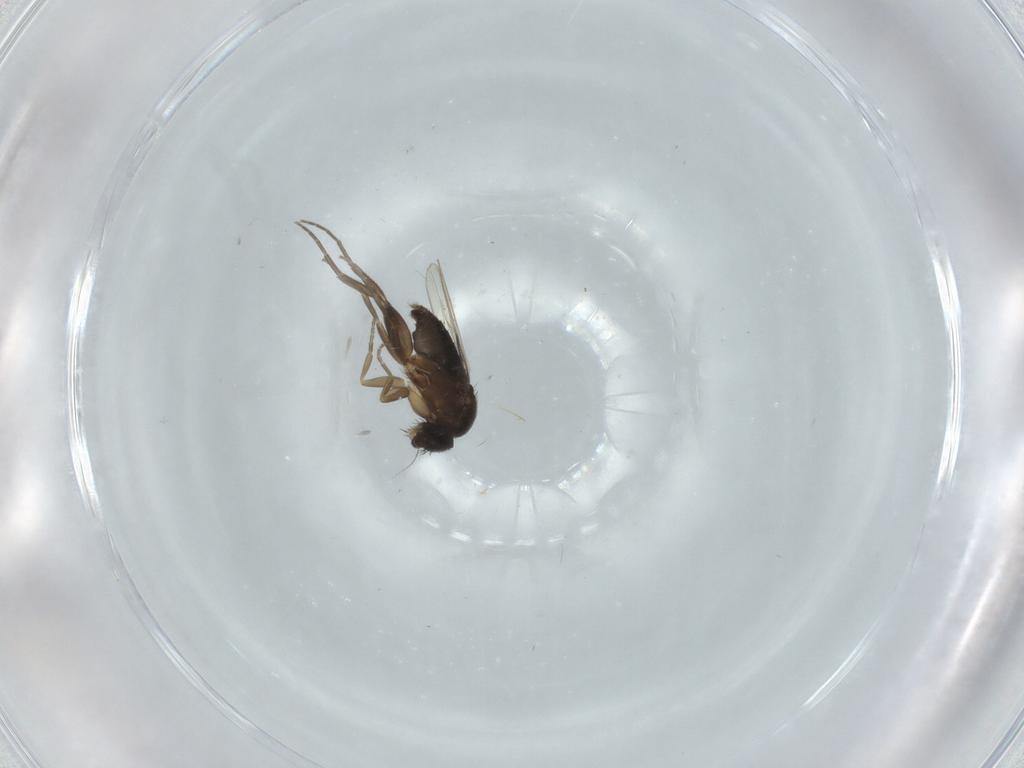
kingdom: Animalia
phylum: Arthropoda
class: Insecta
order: Diptera
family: Phoridae
